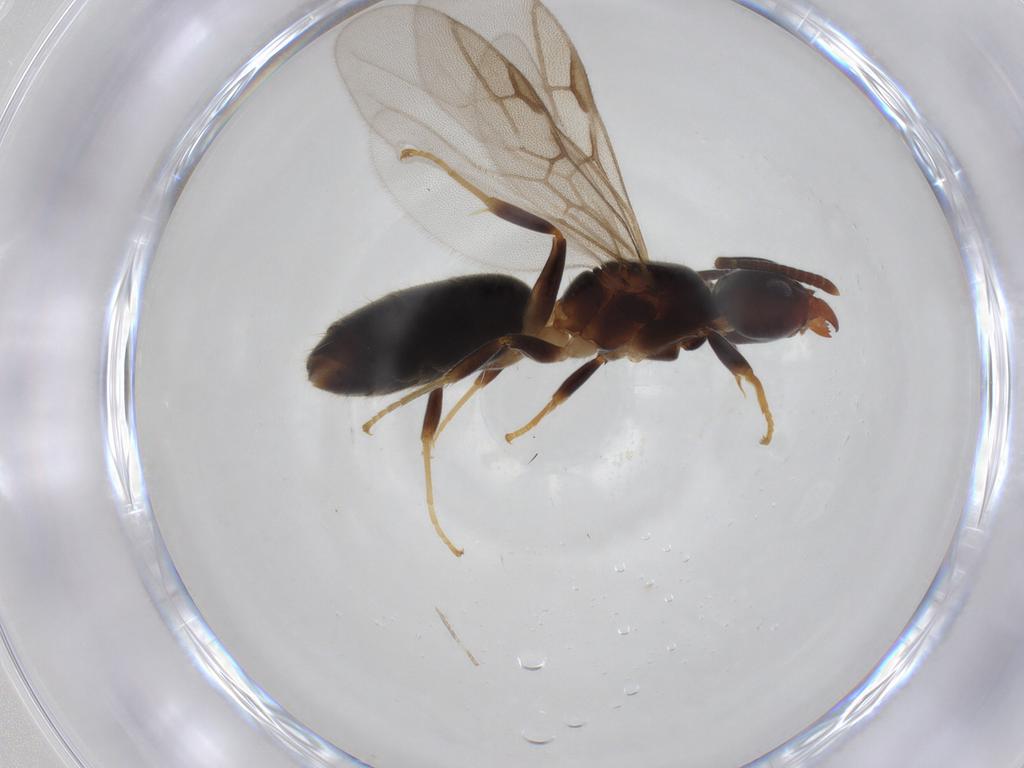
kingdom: Animalia
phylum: Arthropoda
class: Insecta
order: Hymenoptera
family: Formicidae
